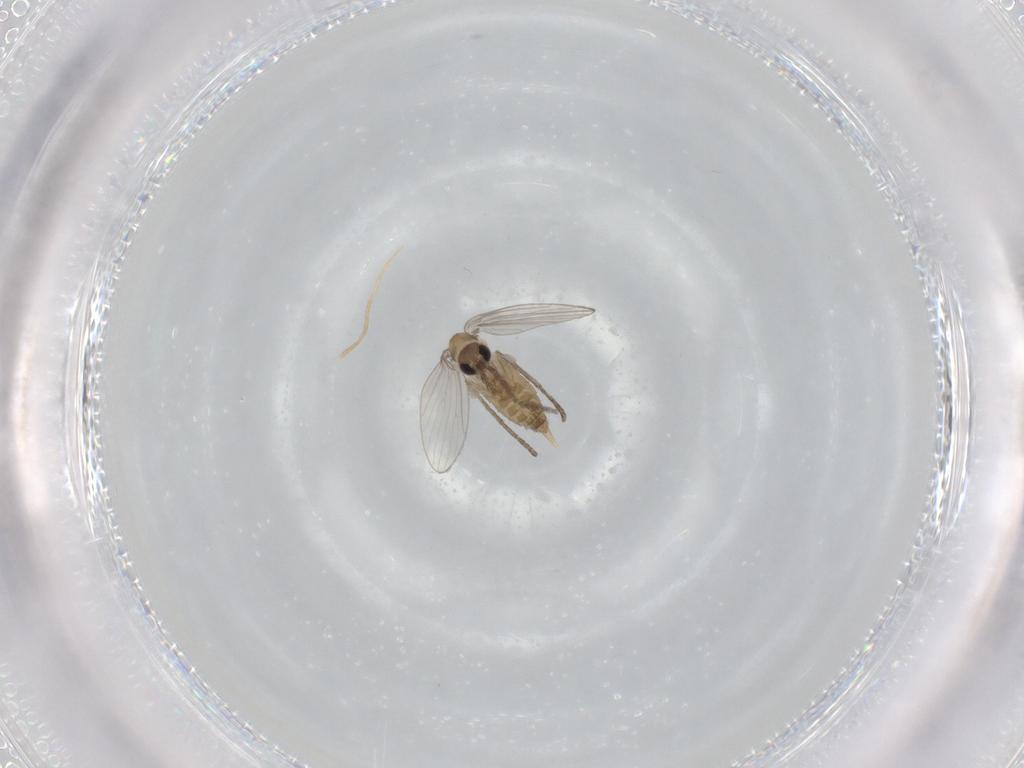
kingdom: Animalia
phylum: Arthropoda
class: Insecta
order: Diptera
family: Psychodidae
